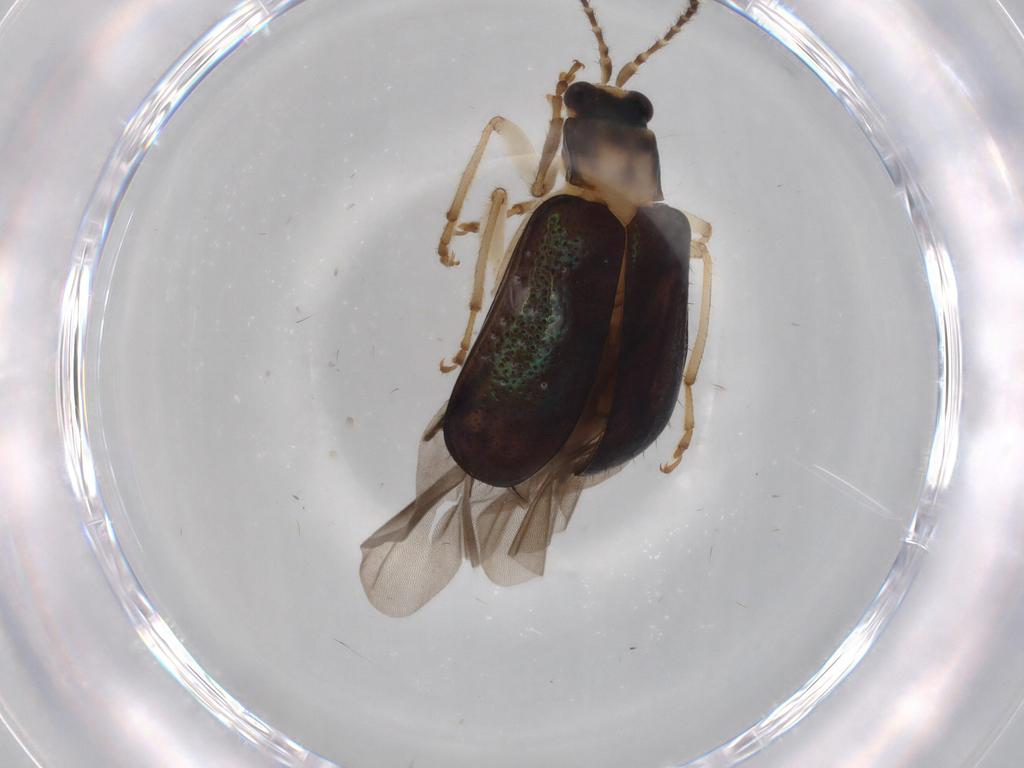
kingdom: Animalia
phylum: Arthropoda
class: Insecta
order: Coleoptera
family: Chrysomelidae
